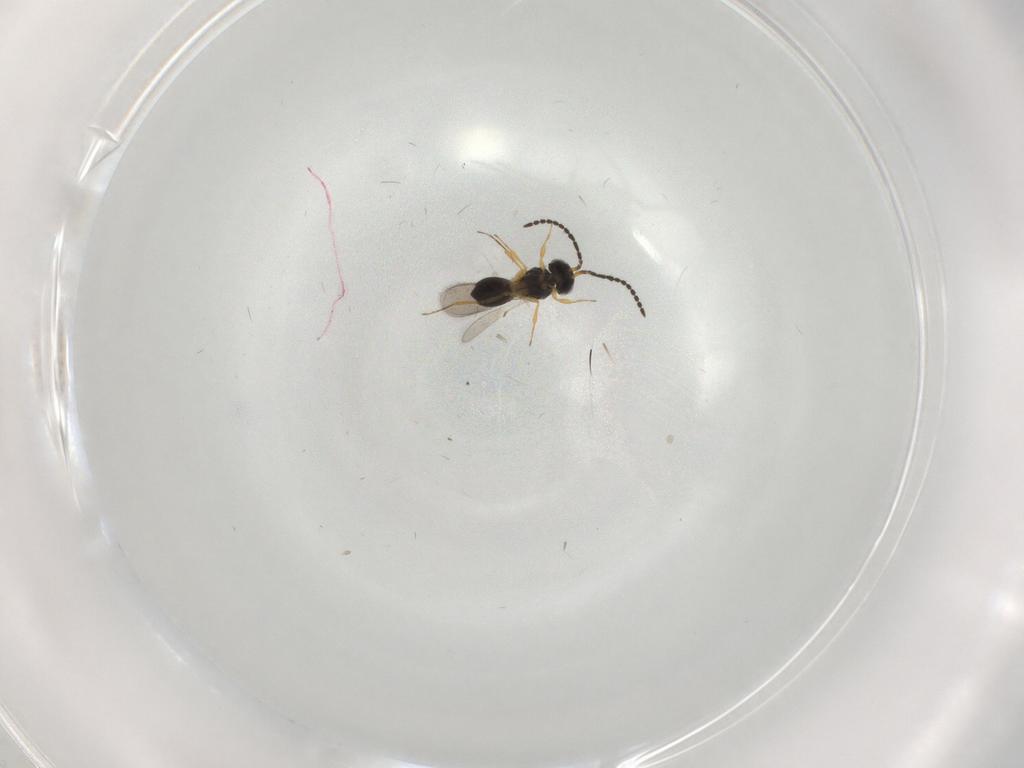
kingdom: Animalia
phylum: Arthropoda
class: Insecta
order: Hymenoptera
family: Scelionidae
